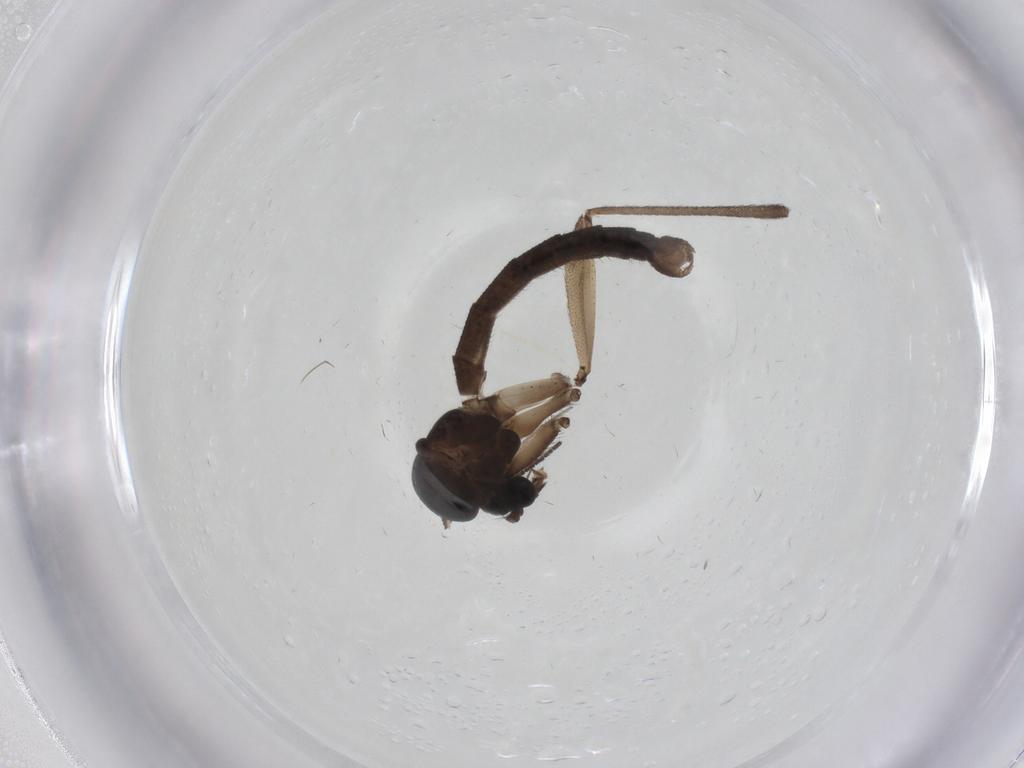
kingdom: Animalia
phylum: Arthropoda
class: Insecta
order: Diptera
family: Mycetophilidae
